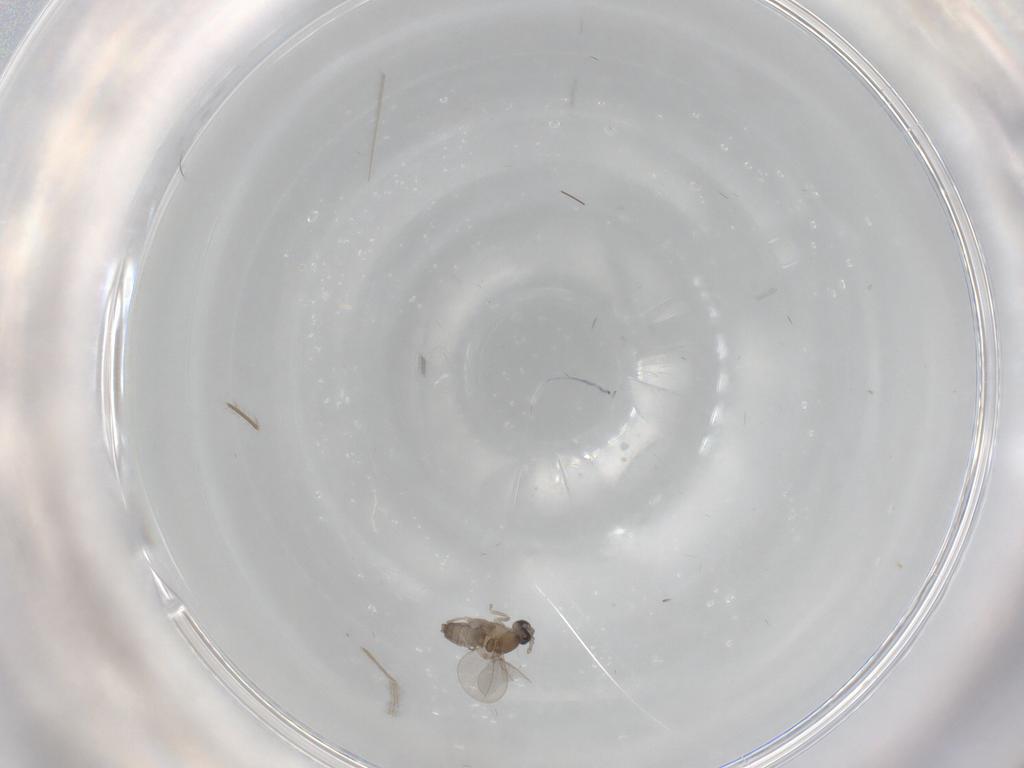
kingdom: Animalia
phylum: Arthropoda
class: Insecta
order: Diptera
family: Cecidomyiidae
